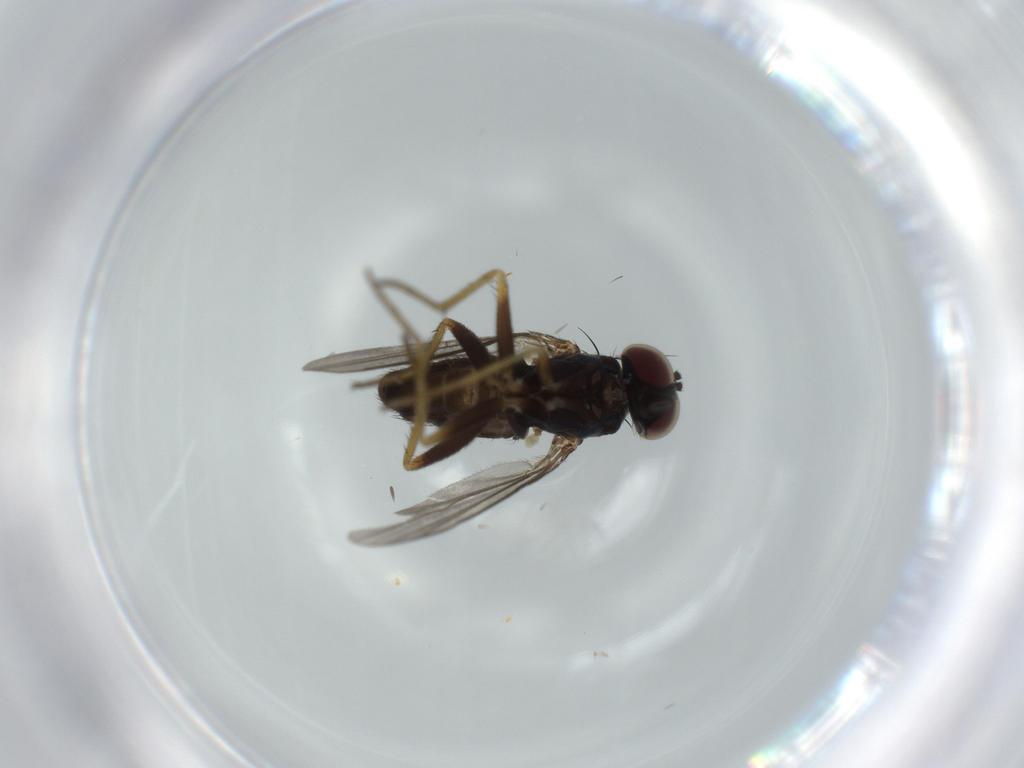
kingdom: Animalia
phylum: Arthropoda
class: Insecta
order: Diptera
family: Dolichopodidae
